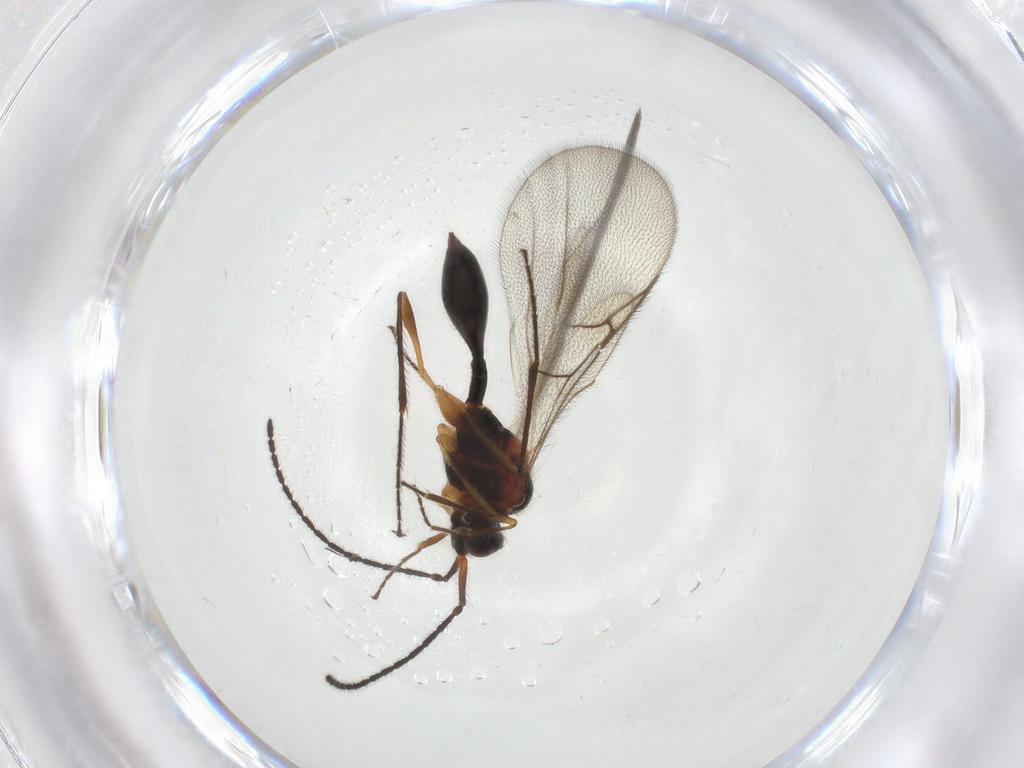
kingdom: Animalia
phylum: Arthropoda
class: Insecta
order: Hymenoptera
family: Diapriidae
